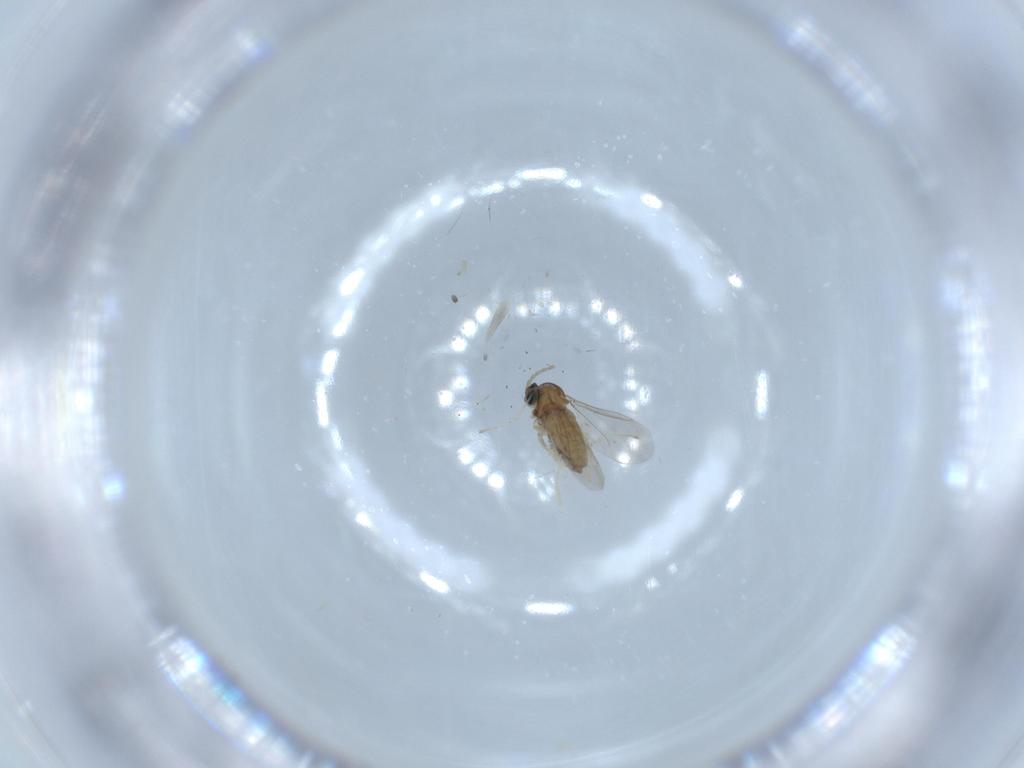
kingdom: Animalia
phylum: Arthropoda
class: Insecta
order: Diptera
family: Cecidomyiidae
